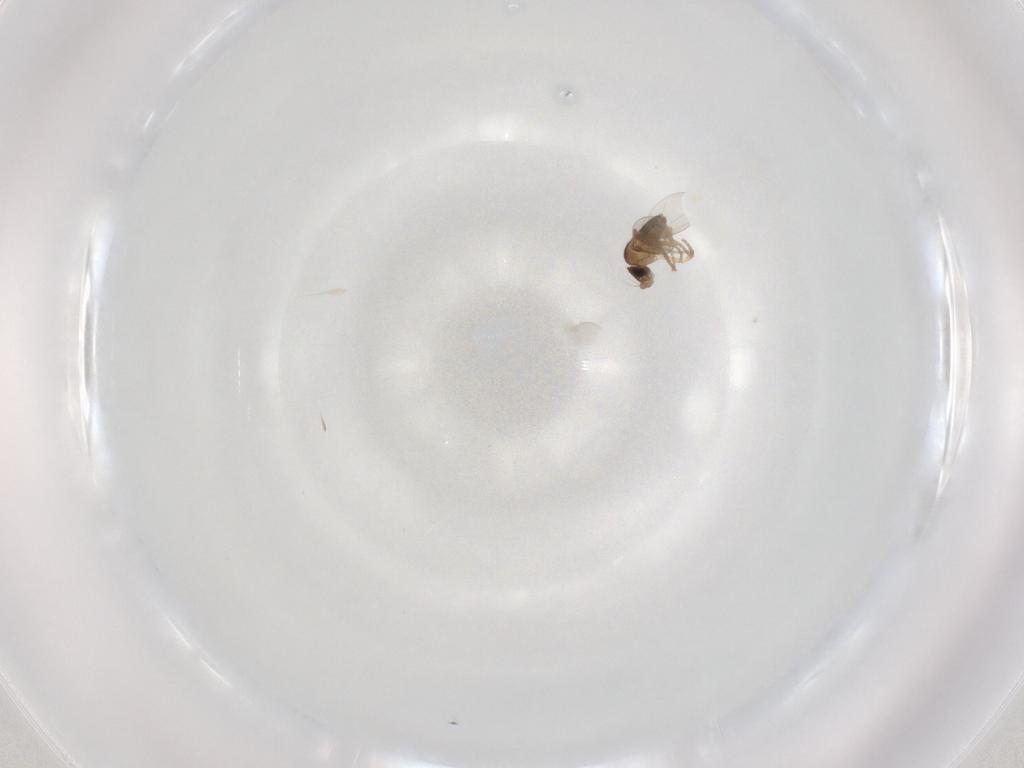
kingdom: Animalia
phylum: Arthropoda
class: Insecta
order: Diptera
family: Phoridae
